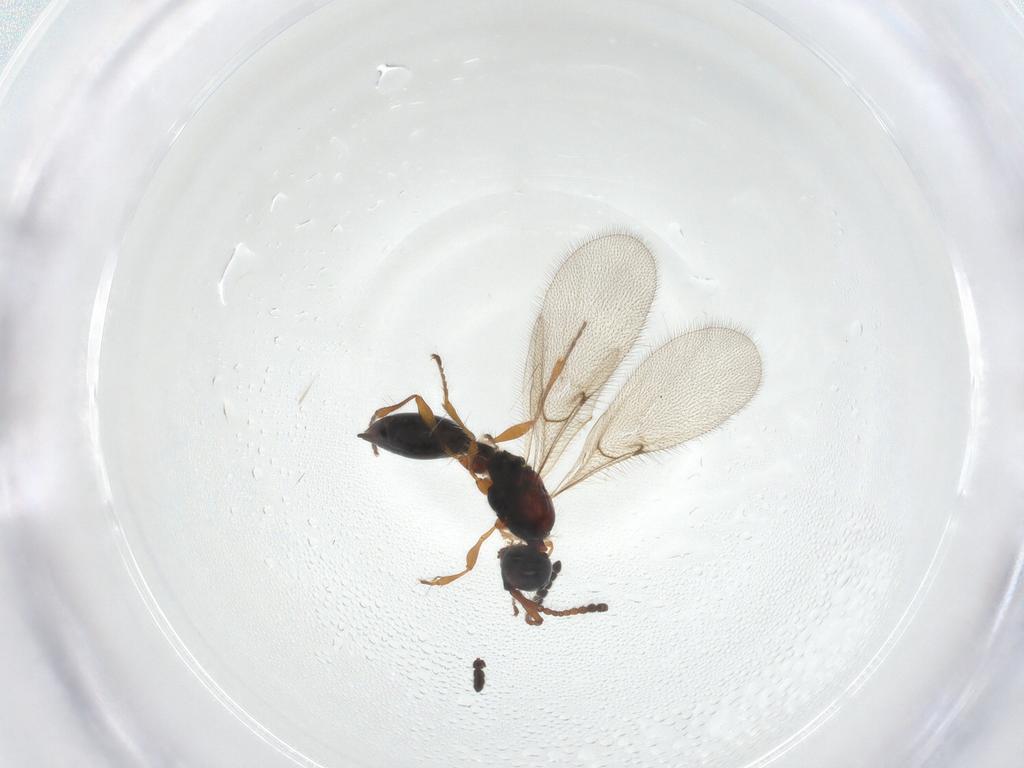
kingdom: Animalia
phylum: Arthropoda
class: Insecta
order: Hymenoptera
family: Diapriidae
